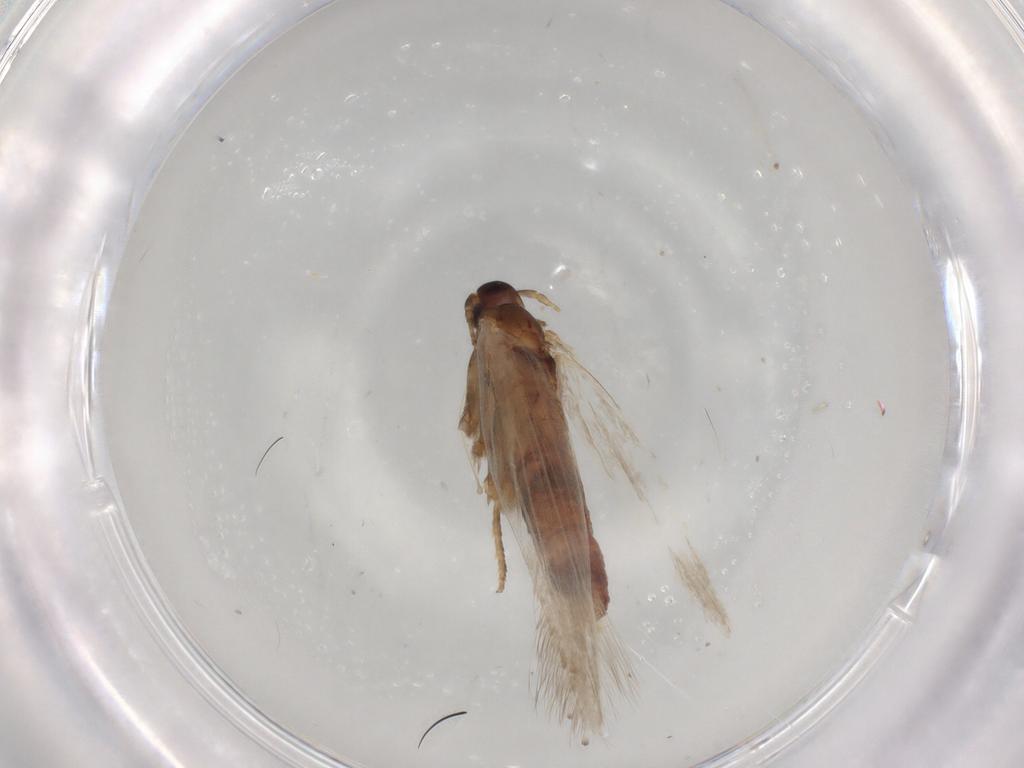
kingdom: Animalia
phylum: Arthropoda
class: Insecta
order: Lepidoptera
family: Erebidae
